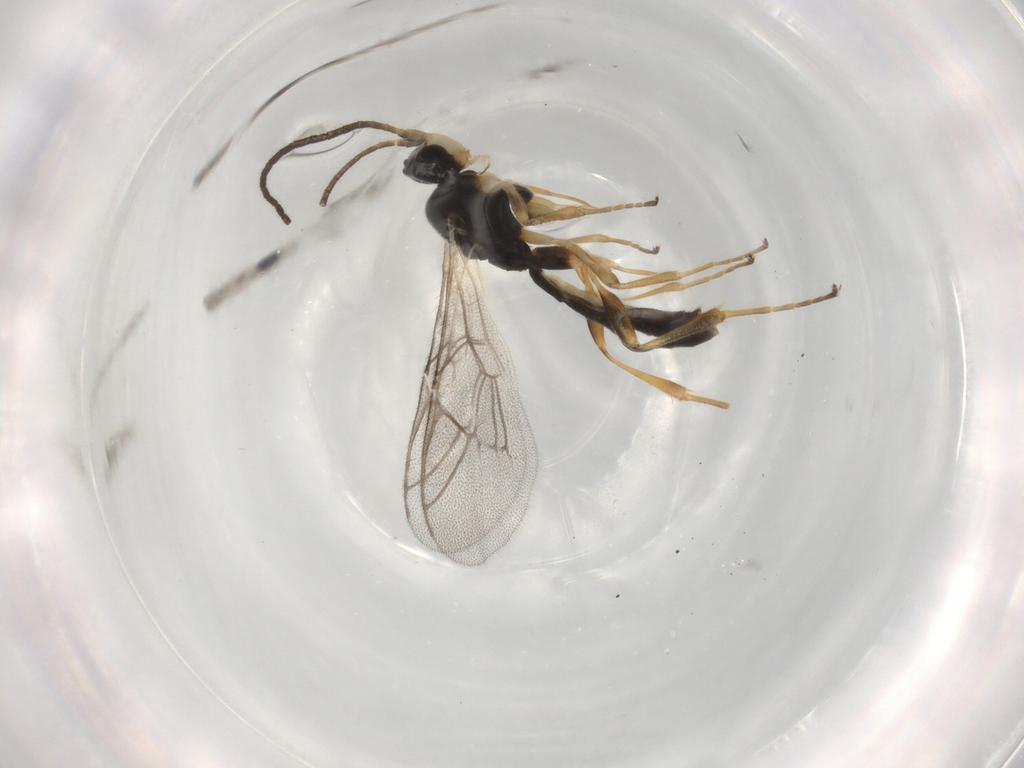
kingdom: Animalia
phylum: Arthropoda
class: Insecta
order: Hymenoptera
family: Ichneumonidae
